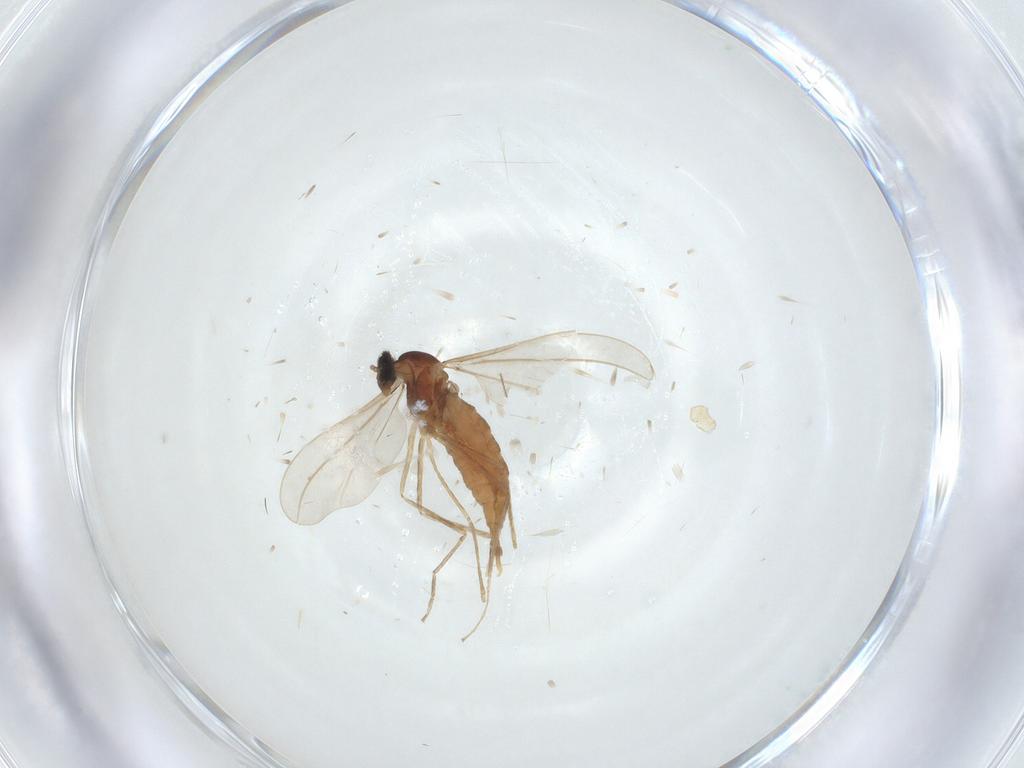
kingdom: Animalia
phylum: Arthropoda
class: Insecta
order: Diptera
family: Cecidomyiidae
